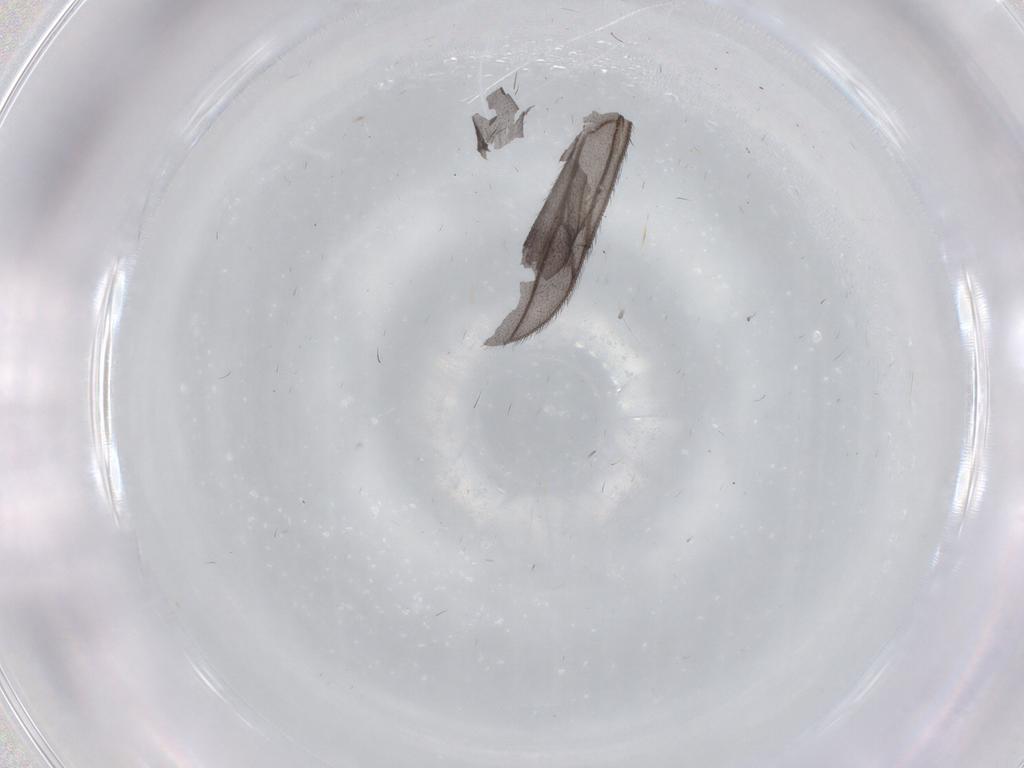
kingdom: Animalia
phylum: Arthropoda
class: Insecta
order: Diptera
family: Ditomyiidae
